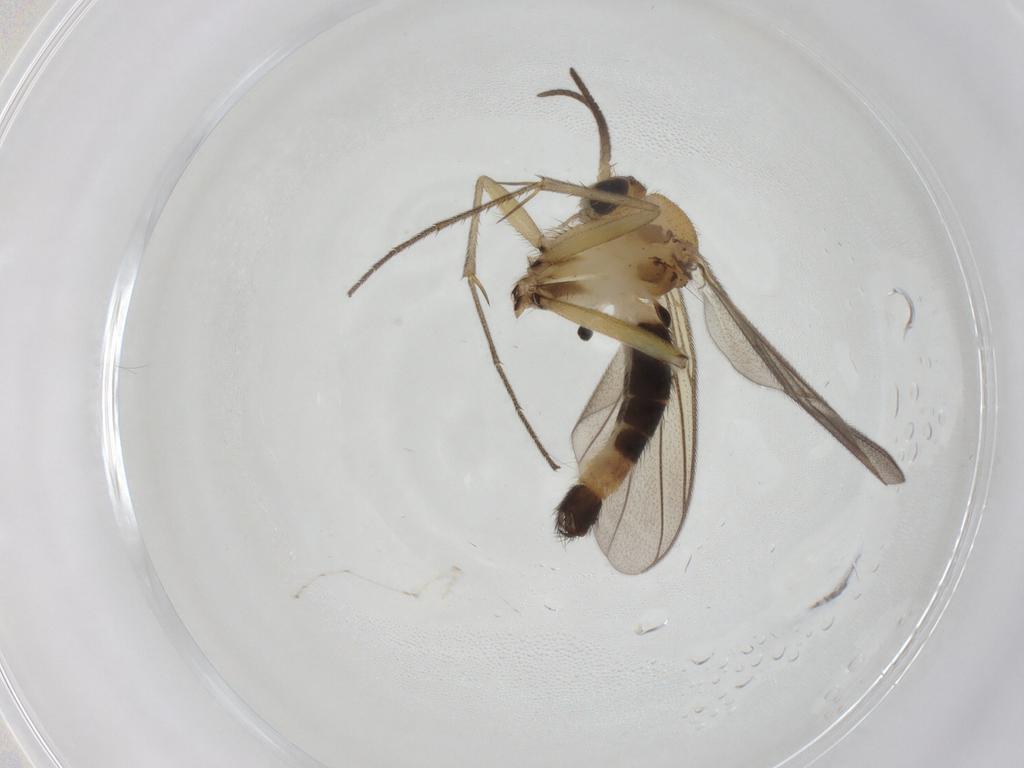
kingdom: Animalia
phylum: Arthropoda
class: Insecta
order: Diptera
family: Mycetophilidae
